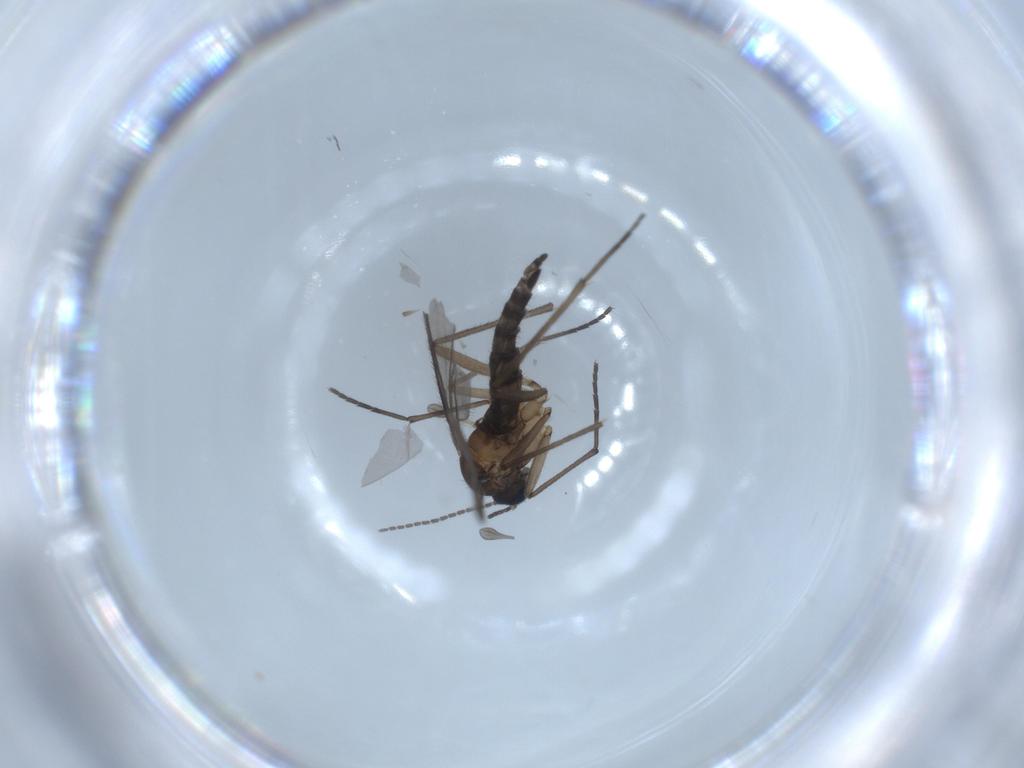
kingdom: Animalia
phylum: Arthropoda
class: Insecta
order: Diptera
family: Sciaridae
